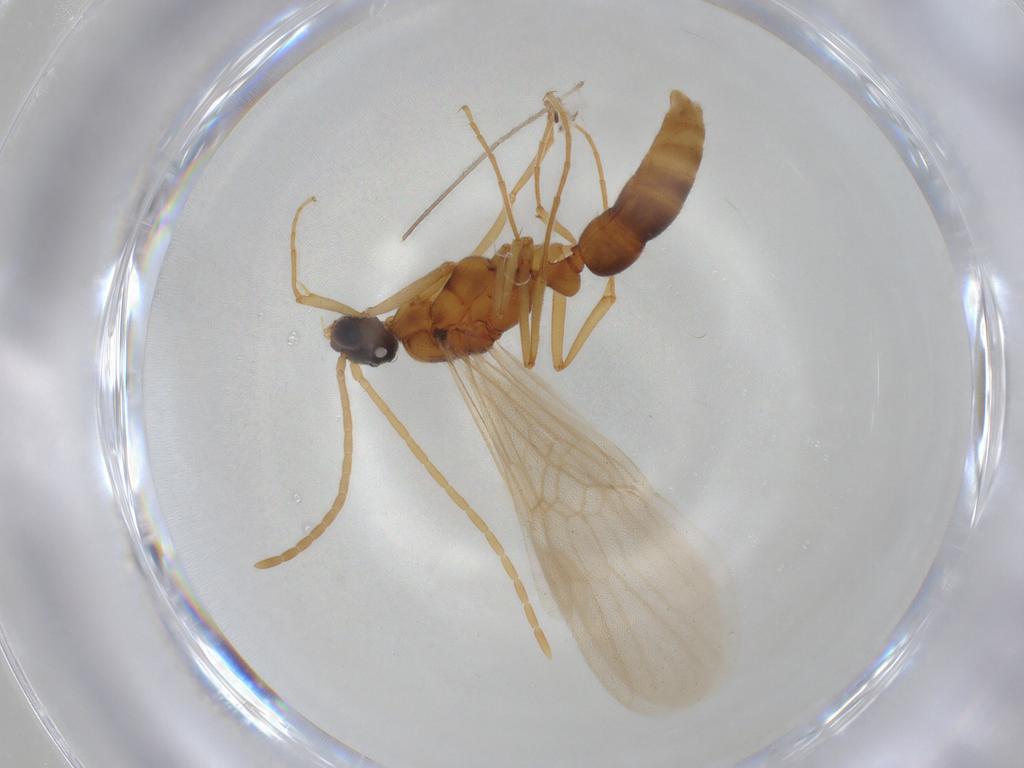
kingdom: Animalia
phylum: Arthropoda
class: Insecta
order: Hymenoptera
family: Formicidae
